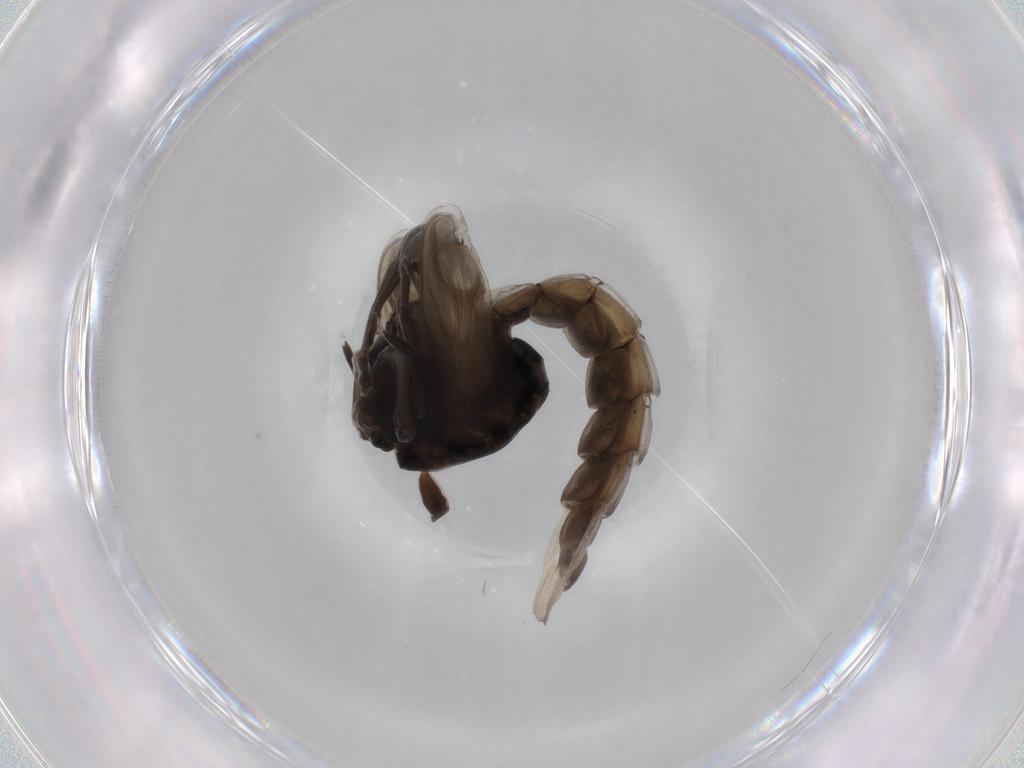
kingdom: Animalia
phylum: Arthropoda
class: Insecta
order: Diptera
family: Chironomidae
